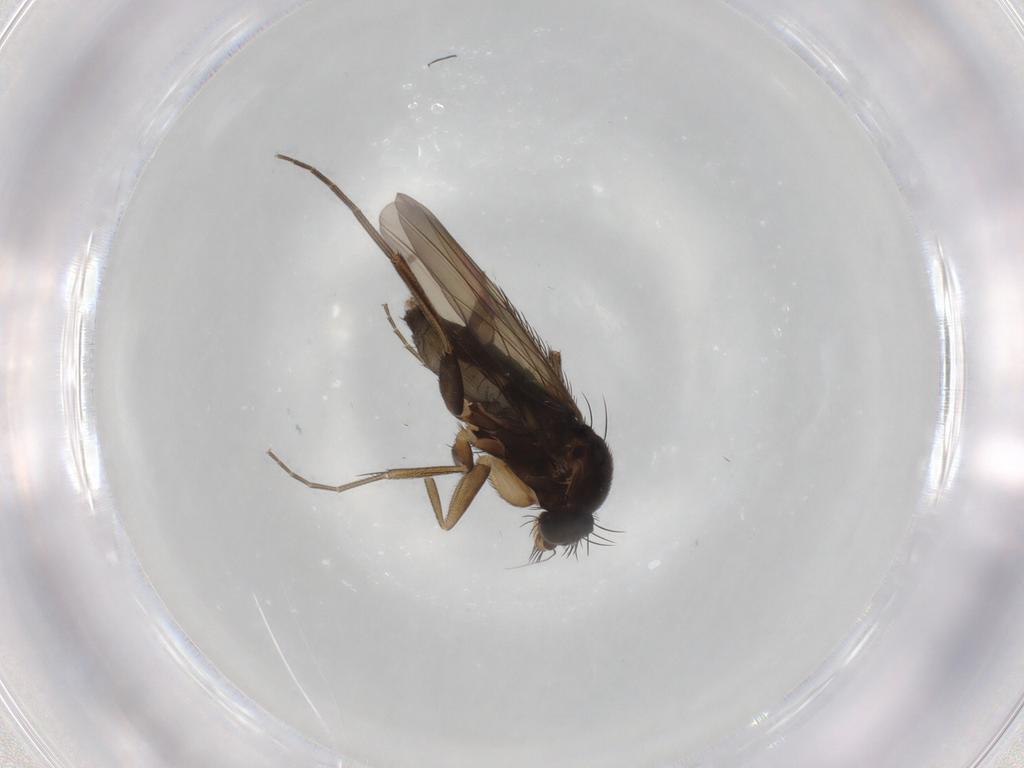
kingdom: Animalia
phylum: Arthropoda
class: Insecta
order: Diptera
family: Phoridae
